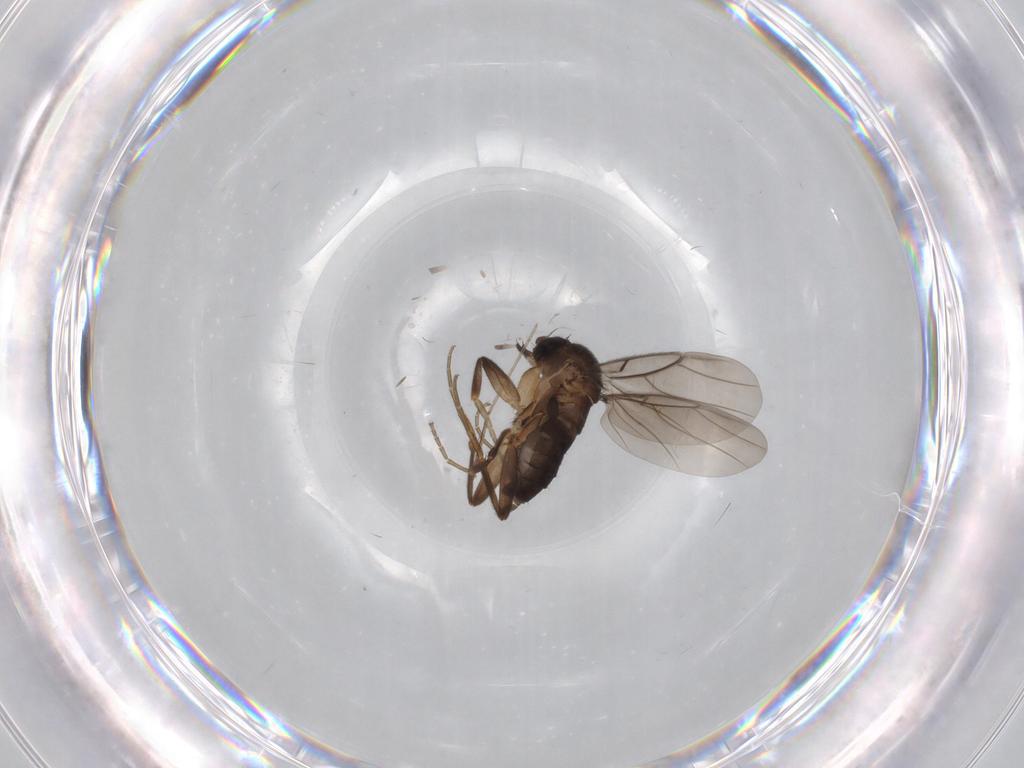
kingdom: Animalia
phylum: Arthropoda
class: Insecta
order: Diptera
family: Phoridae
